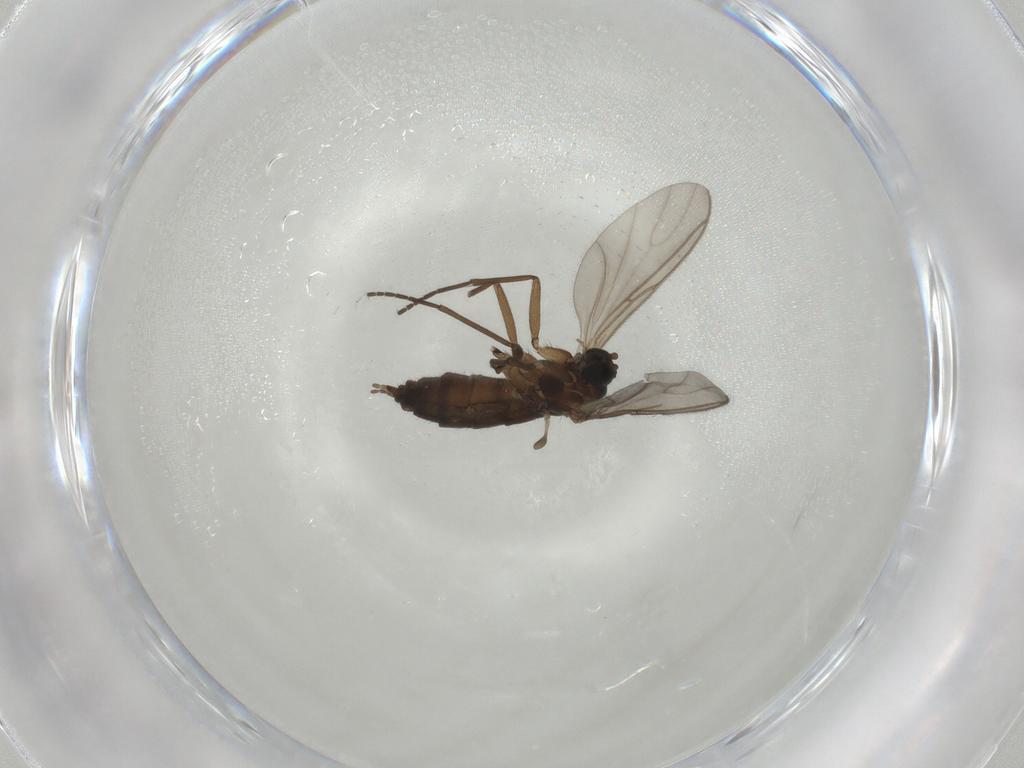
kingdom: Animalia
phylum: Arthropoda
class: Insecta
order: Diptera
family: Sciaridae
